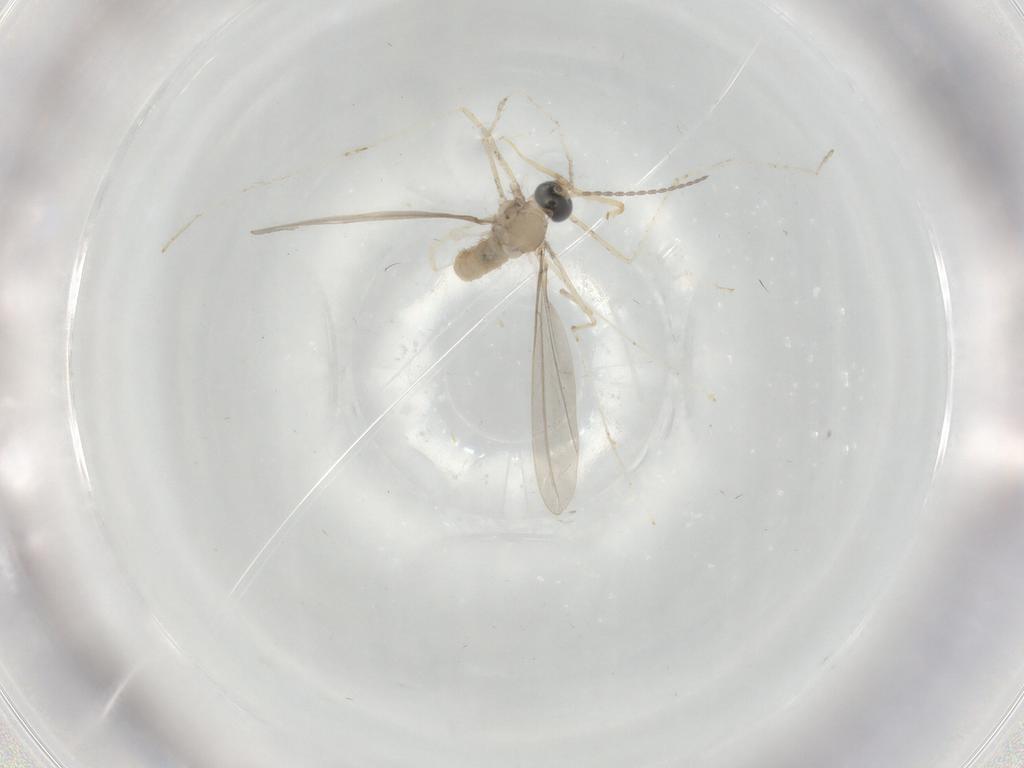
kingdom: Animalia
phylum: Arthropoda
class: Insecta
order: Diptera
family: Cecidomyiidae
